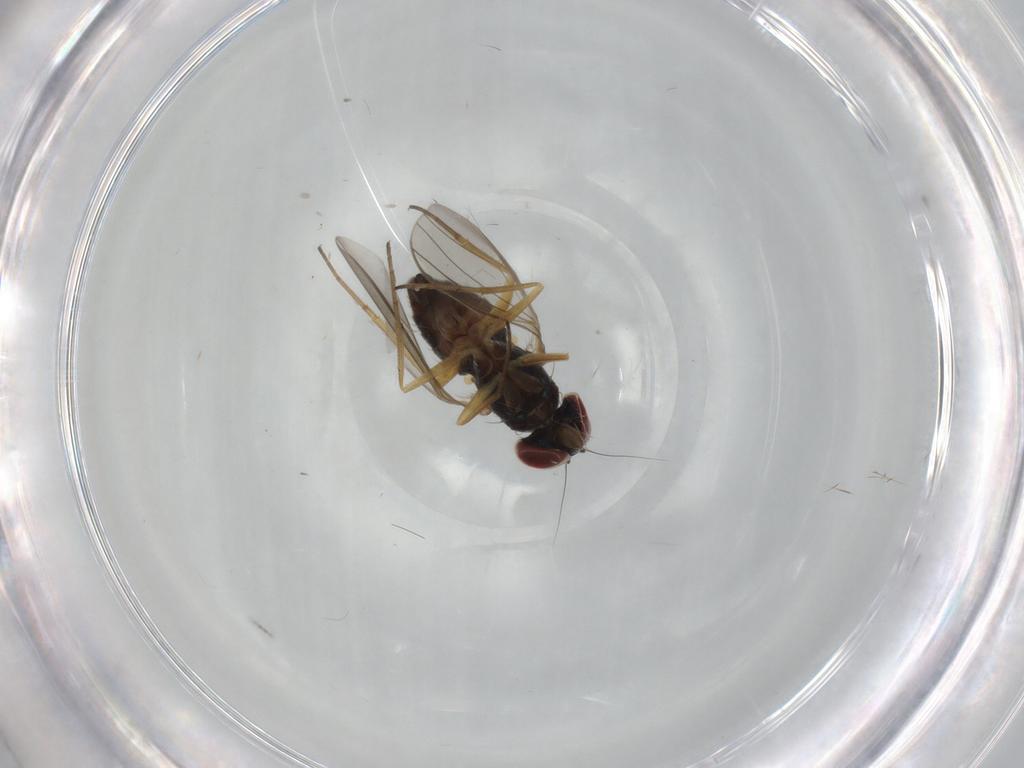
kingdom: Animalia
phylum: Arthropoda
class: Insecta
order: Diptera
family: Dolichopodidae
